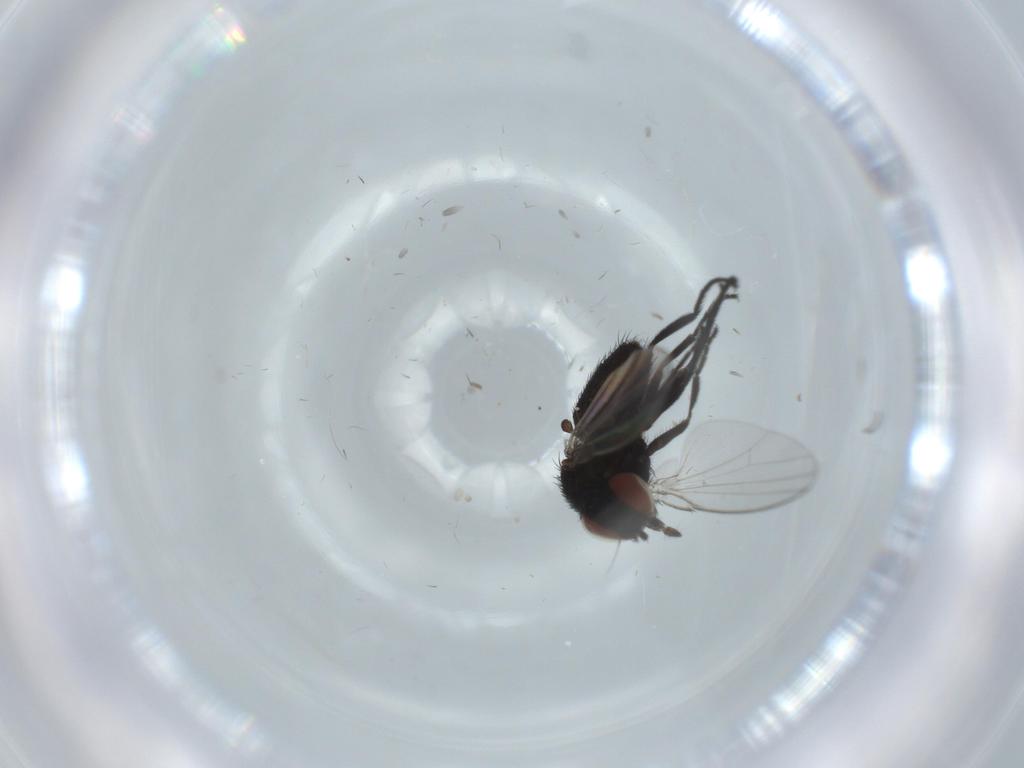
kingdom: Animalia
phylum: Arthropoda
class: Insecta
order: Diptera
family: Milichiidae
